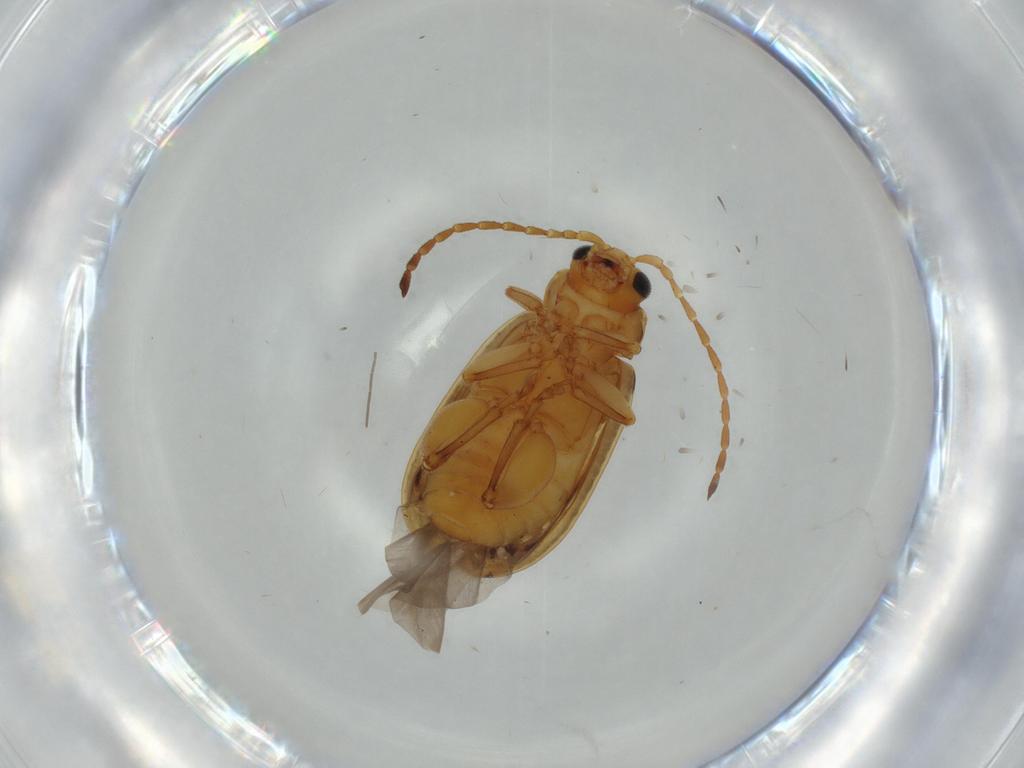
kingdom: Animalia
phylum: Arthropoda
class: Insecta
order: Coleoptera
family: Chrysomelidae
